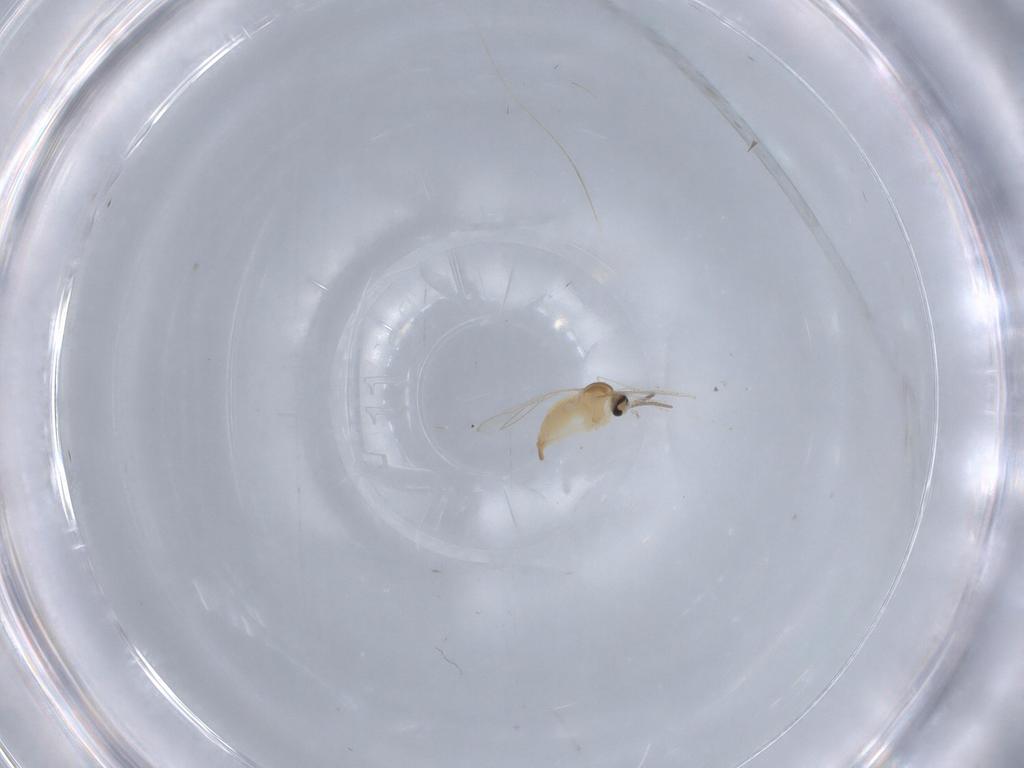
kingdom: Animalia
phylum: Arthropoda
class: Insecta
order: Diptera
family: Cecidomyiidae
